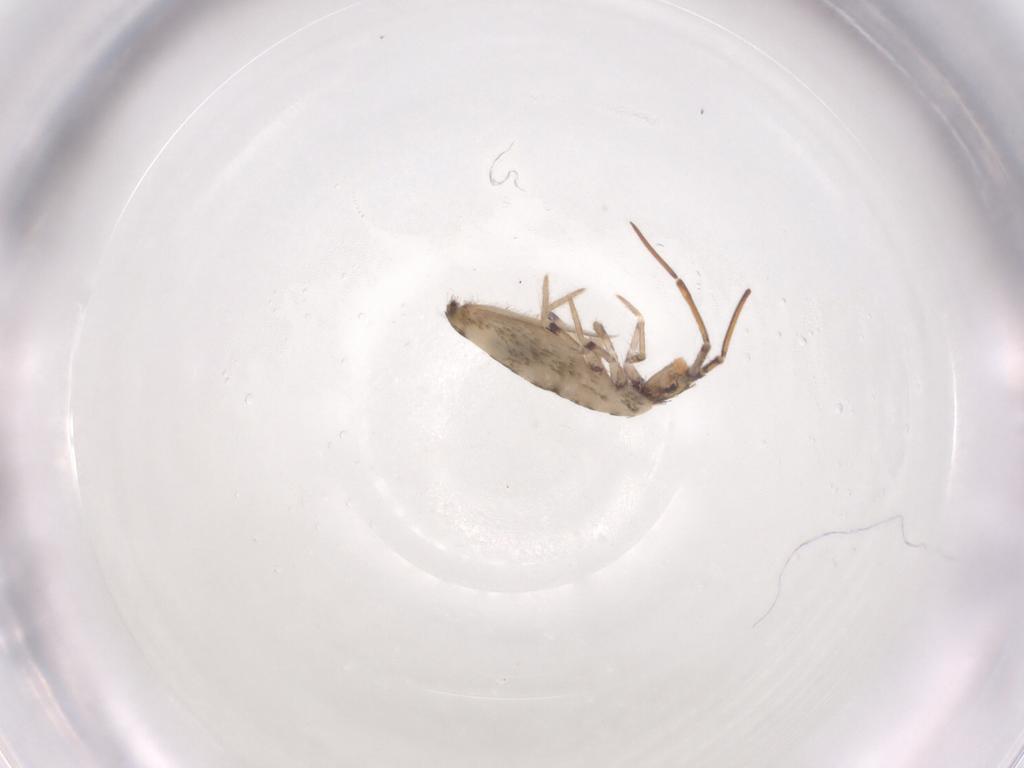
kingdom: Animalia
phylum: Arthropoda
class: Collembola
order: Entomobryomorpha
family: Entomobryidae
